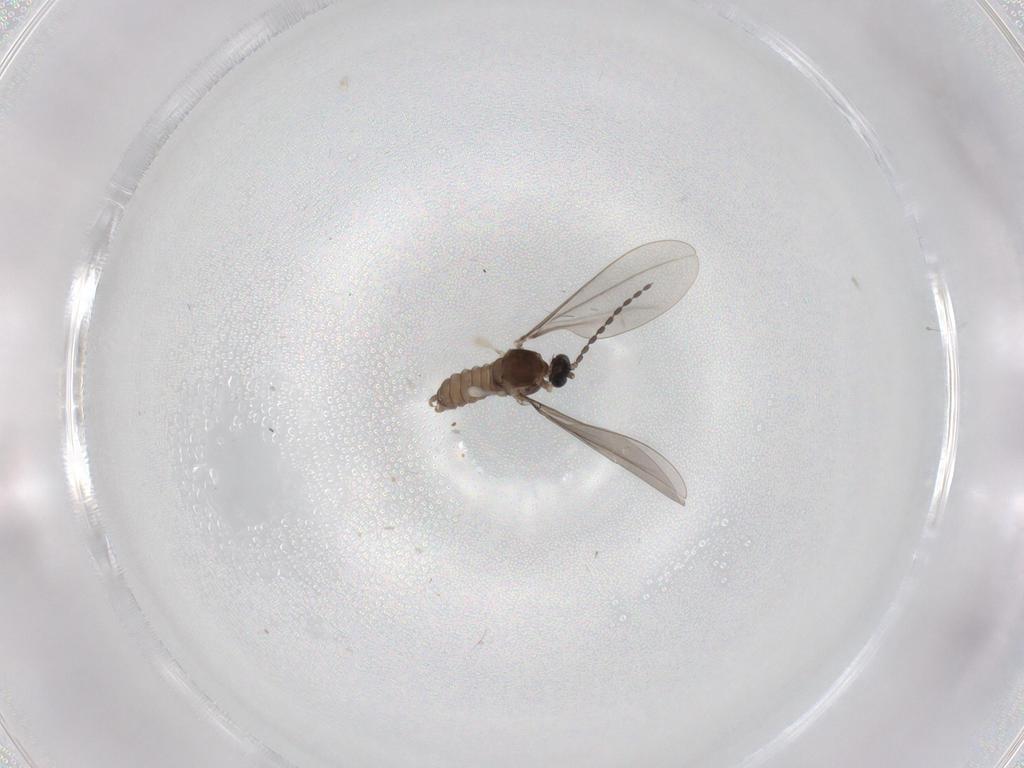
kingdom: Animalia
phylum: Arthropoda
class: Insecta
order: Diptera
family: Cecidomyiidae
